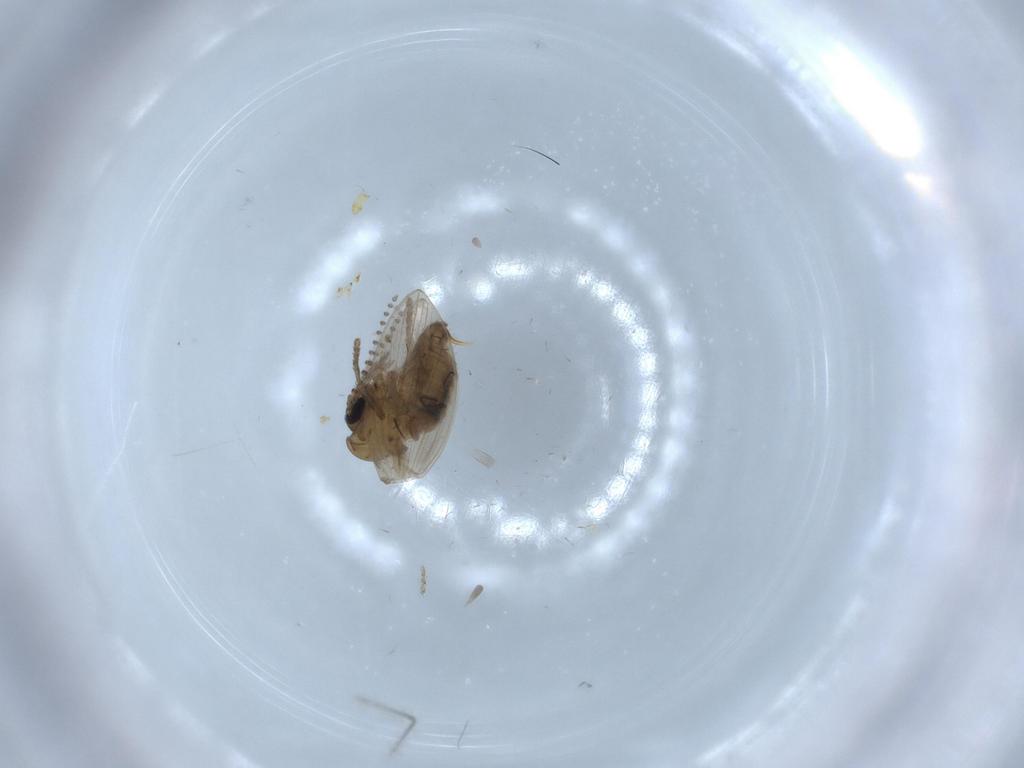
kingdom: Animalia
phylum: Arthropoda
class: Insecta
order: Diptera
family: Psychodidae
